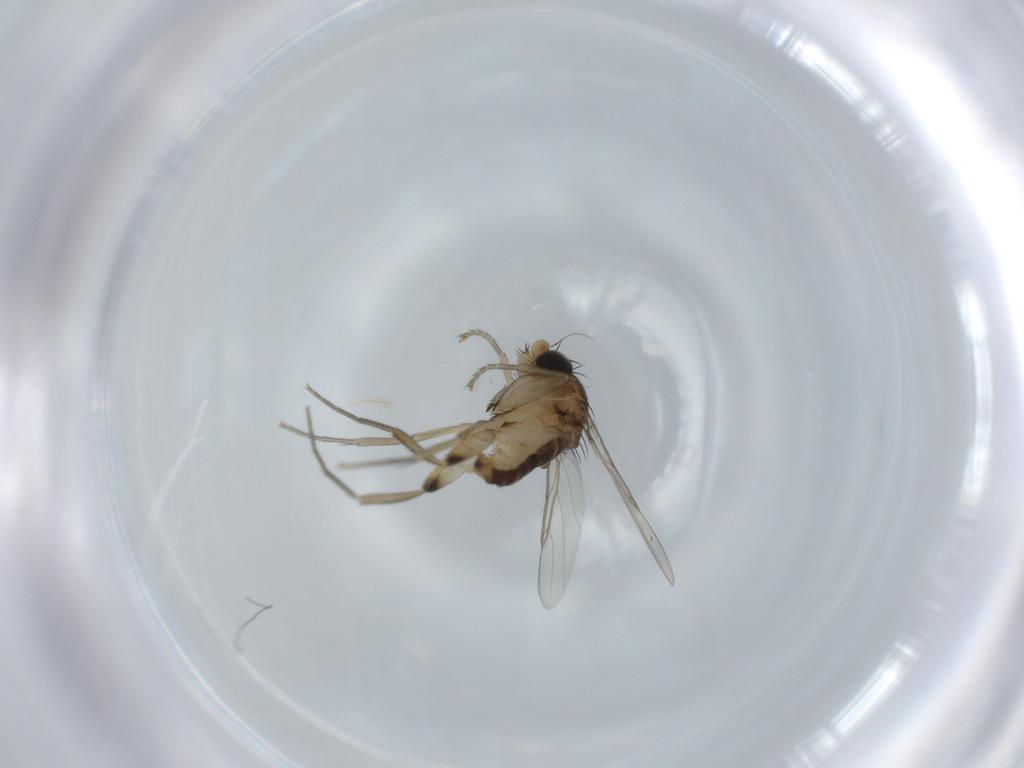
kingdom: Animalia
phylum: Arthropoda
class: Insecta
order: Diptera
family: Phoridae
